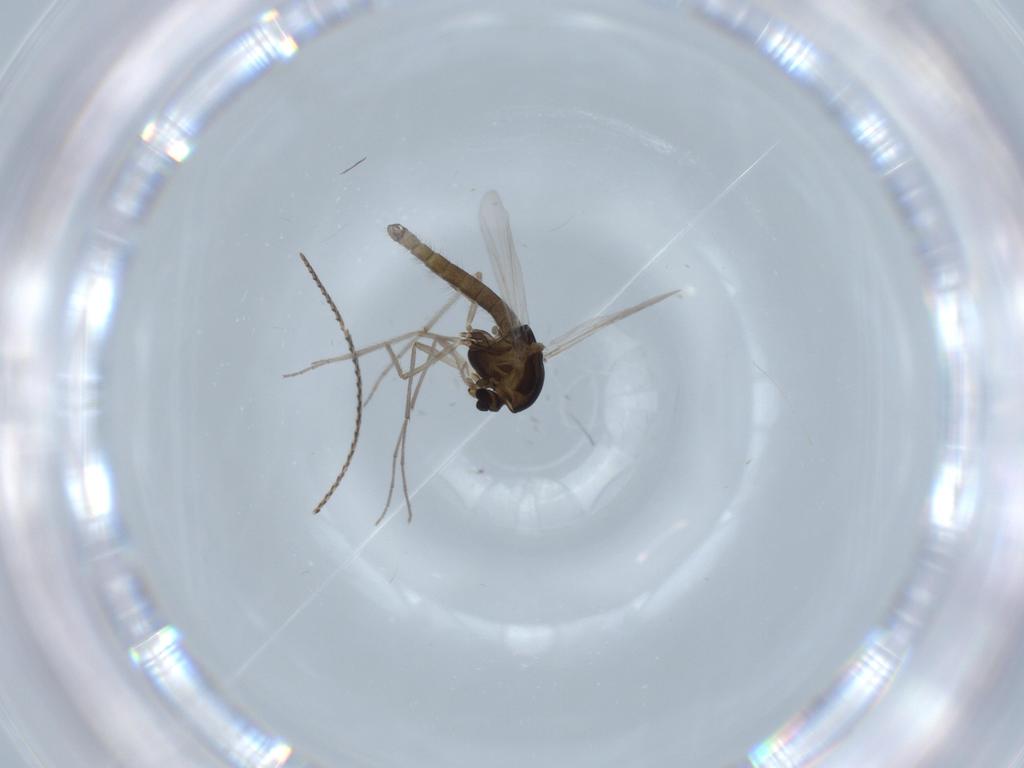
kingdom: Animalia
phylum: Arthropoda
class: Insecta
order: Diptera
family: Chironomidae
